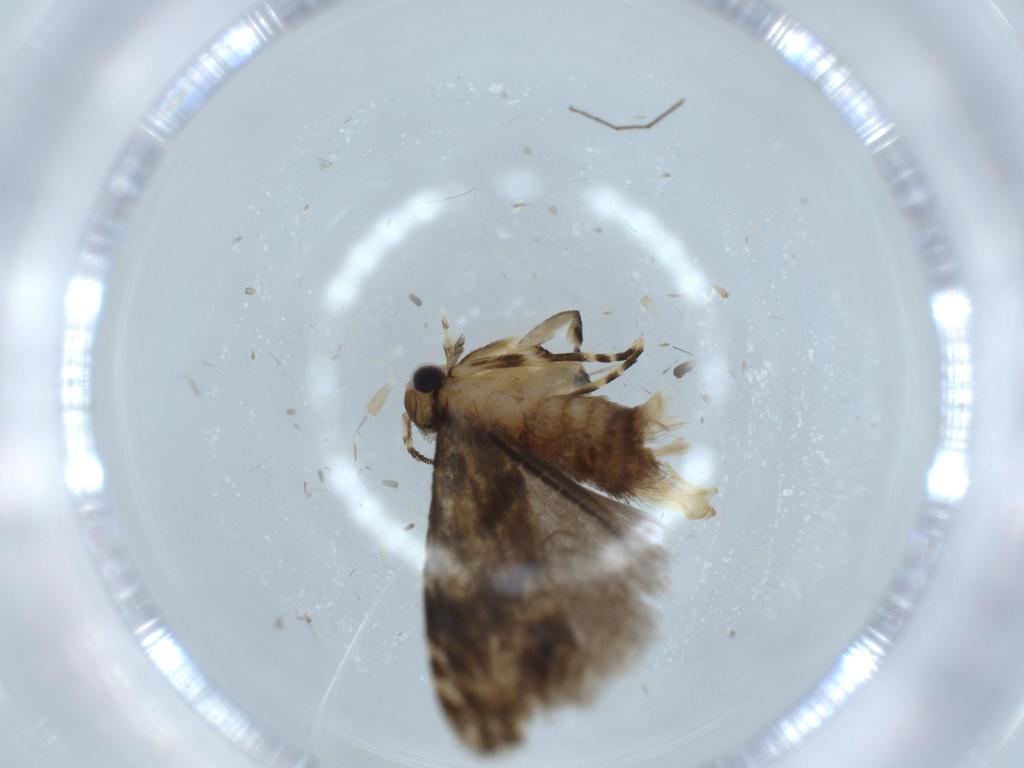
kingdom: Animalia
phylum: Arthropoda
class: Insecta
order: Lepidoptera
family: Tineidae
